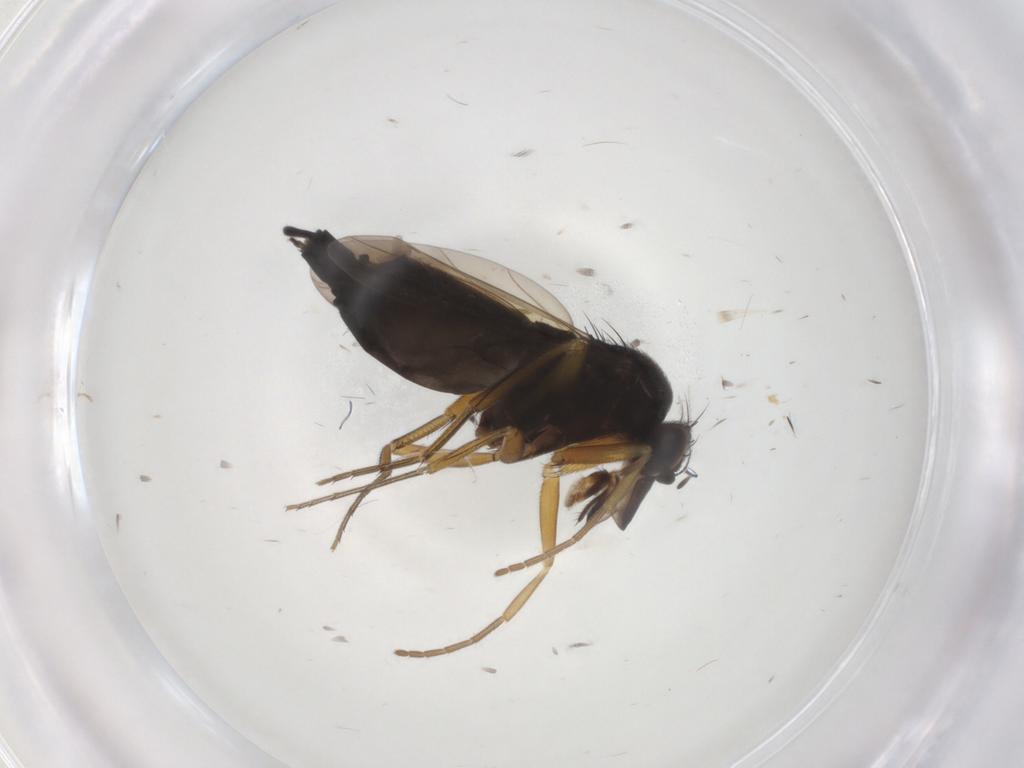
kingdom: Animalia
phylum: Arthropoda
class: Insecta
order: Diptera
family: Chironomidae
